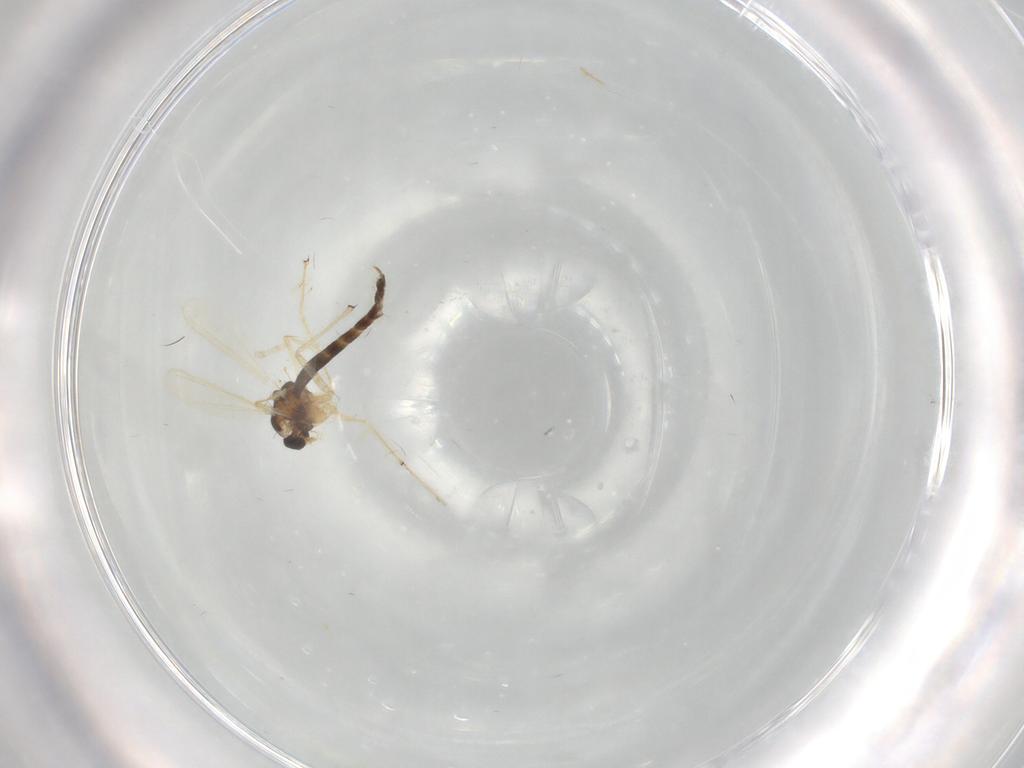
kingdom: Animalia
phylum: Arthropoda
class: Insecta
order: Diptera
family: Chironomidae
